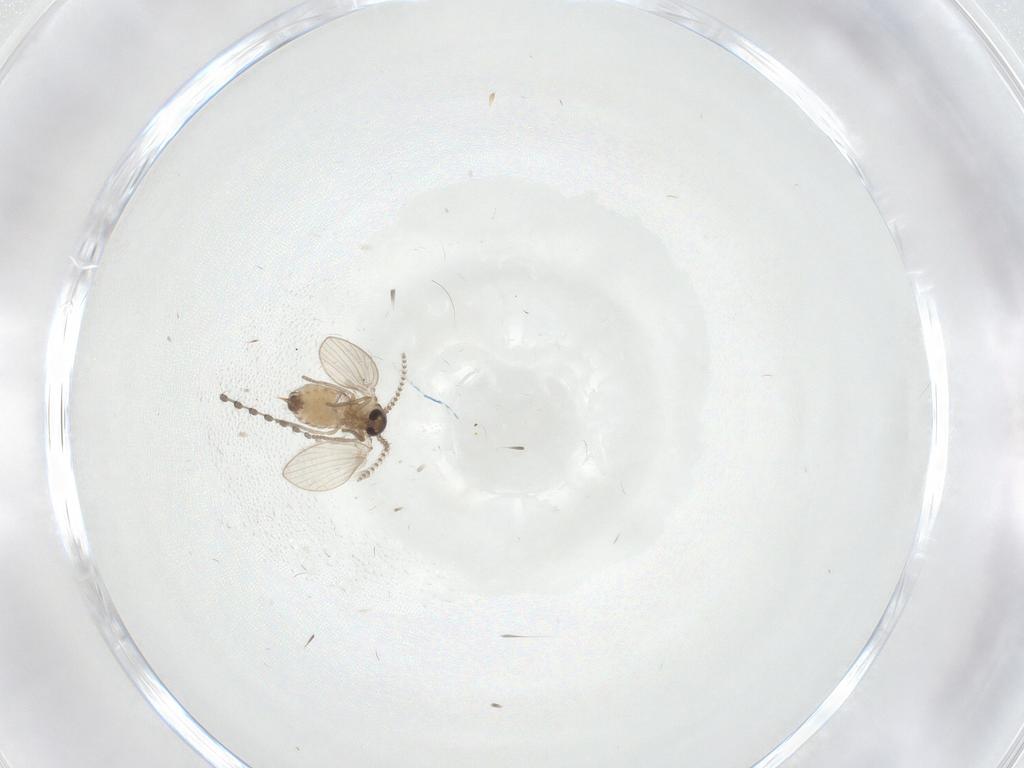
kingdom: Animalia
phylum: Arthropoda
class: Insecta
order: Diptera
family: Psychodidae
